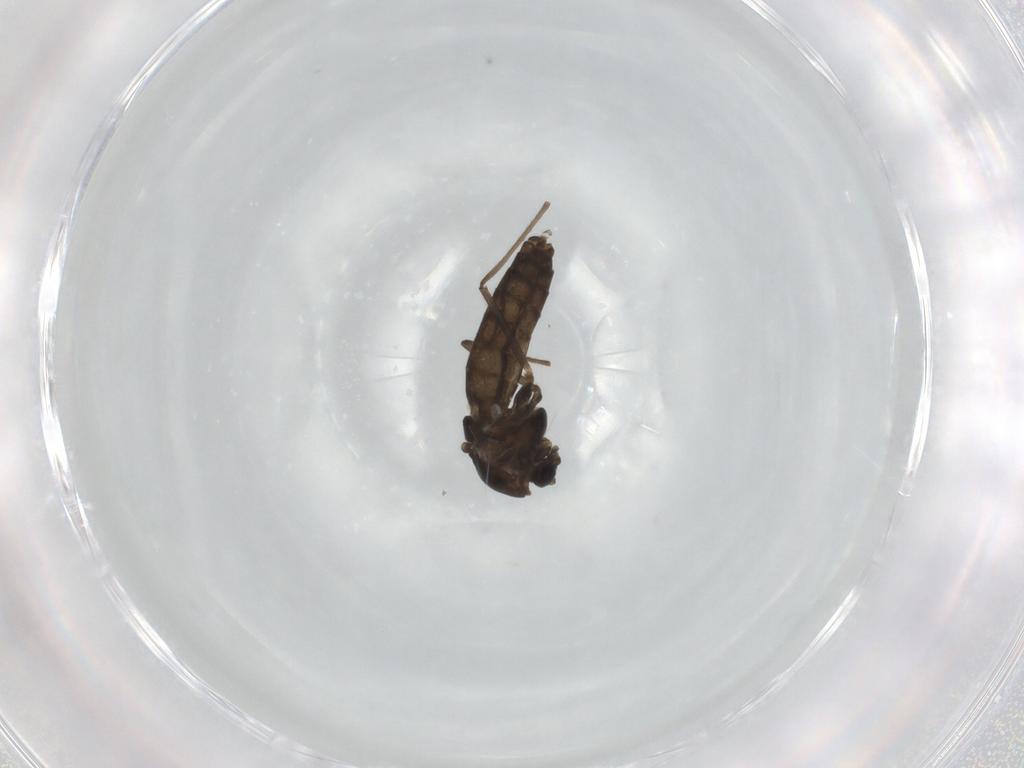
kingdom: Animalia
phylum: Arthropoda
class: Insecta
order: Diptera
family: Chironomidae
